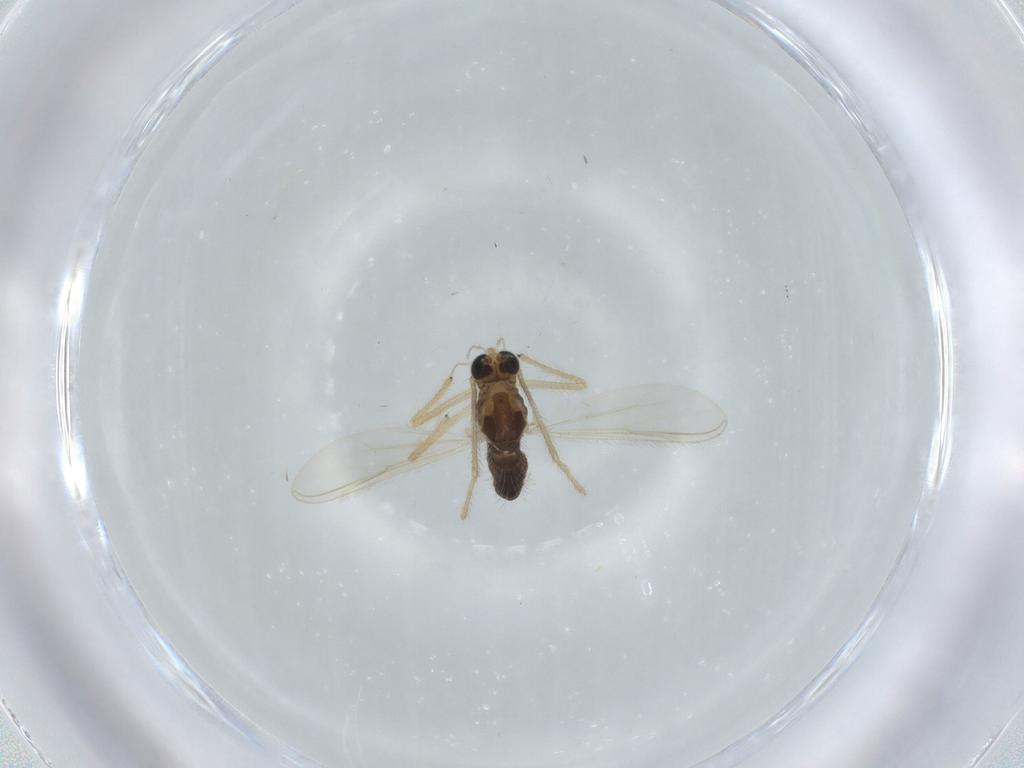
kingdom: Animalia
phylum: Arthropoda
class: Insecta
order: Diptera
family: Phoridae
